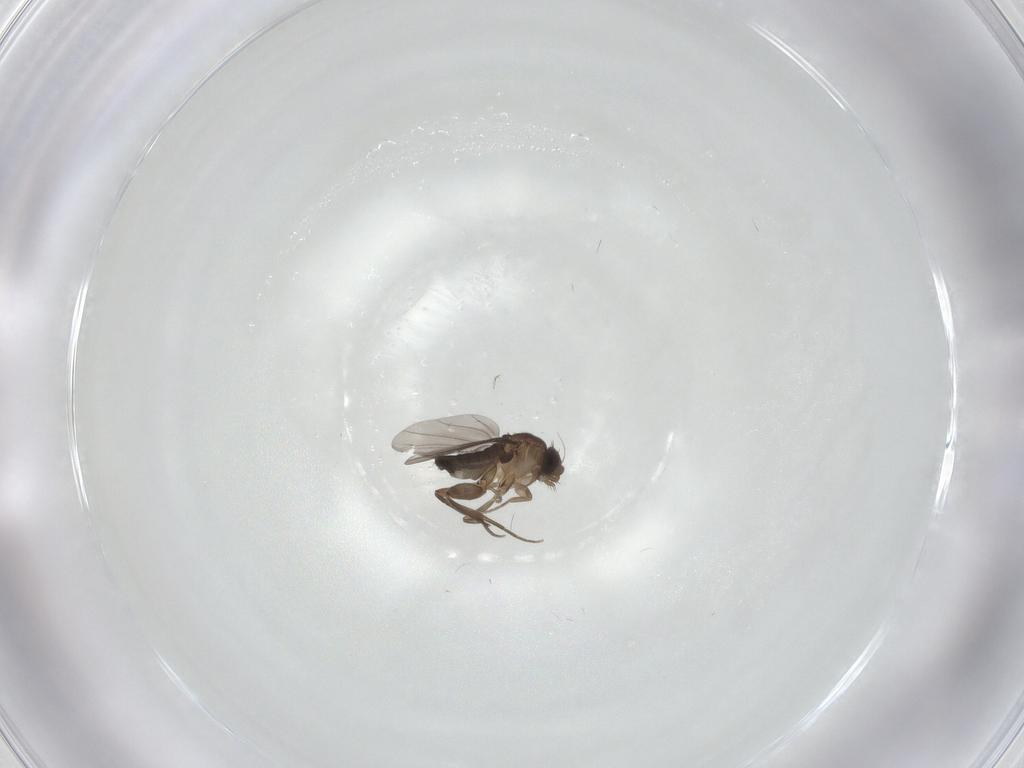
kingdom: Animalia
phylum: Arthropoda
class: Insecta
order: Diptera
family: Phoridae
